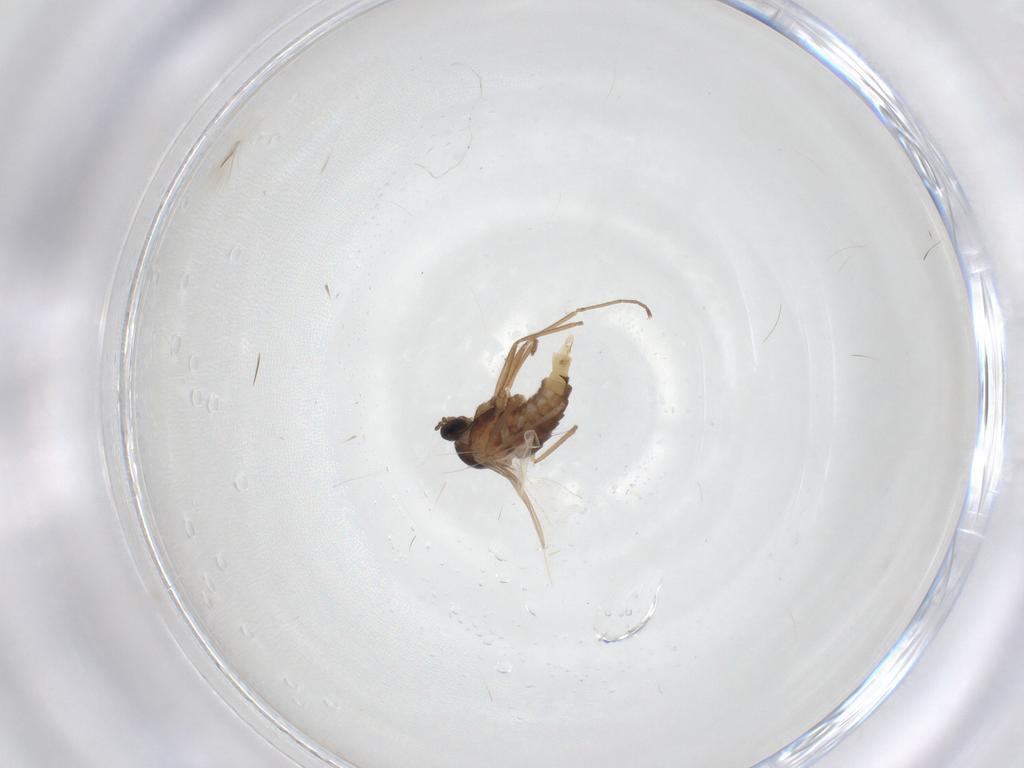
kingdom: Animalia
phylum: Arthropoda
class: Insecta
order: Diptera
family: Cecidomyiidae
